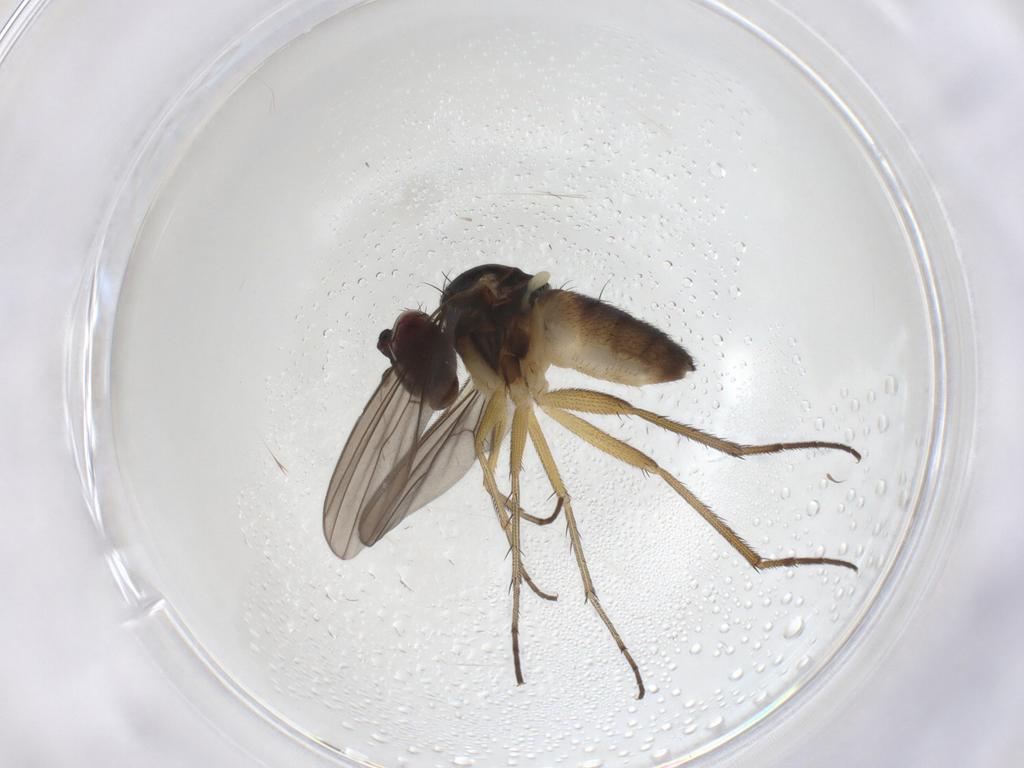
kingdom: Animalia
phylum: Arthropoda
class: Insecta
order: Diptera
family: Dolichopodidae
